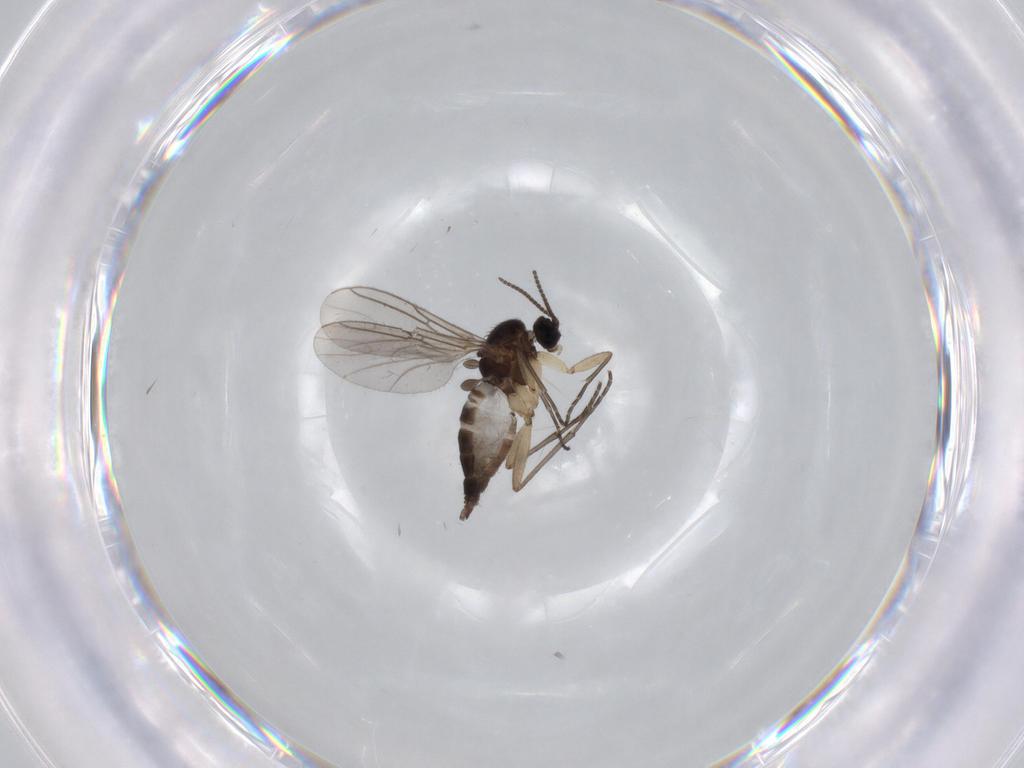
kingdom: Animalia
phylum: Arthropoda
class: Insecta
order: Diptera
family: Sciaridae
